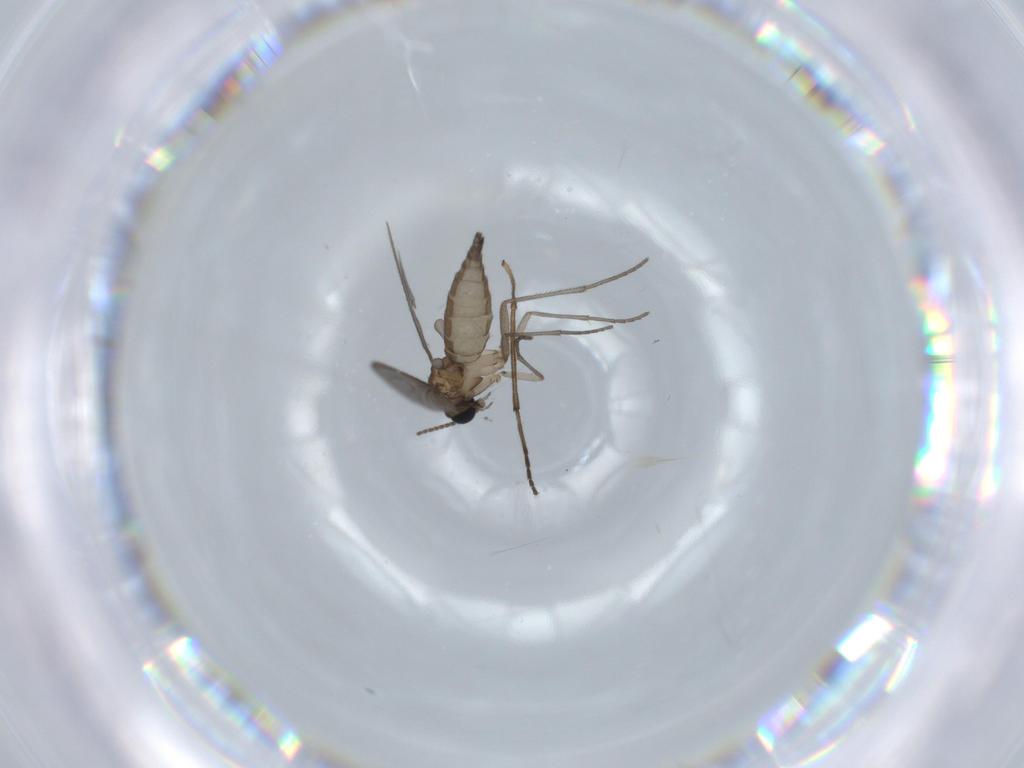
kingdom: Animalia
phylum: Arthropoda
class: Insecta
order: Diptera
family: Sciaridae
